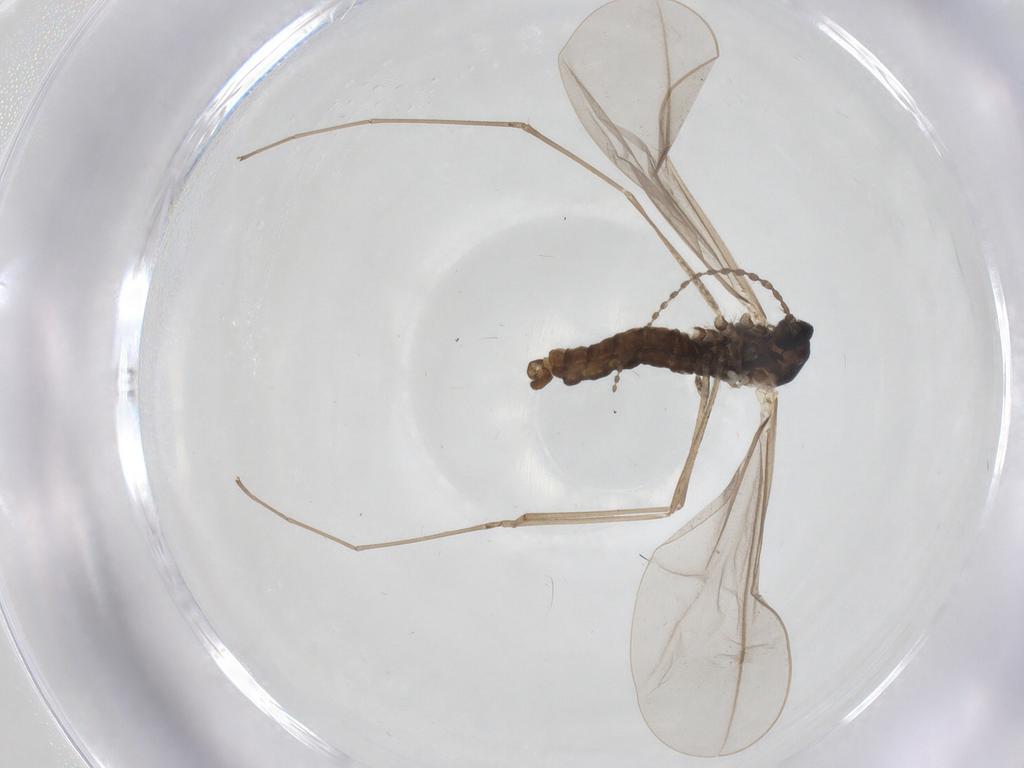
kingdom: Animalia
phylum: Arthropoda
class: Insecta
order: Diptera
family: Cecidomyiidae
